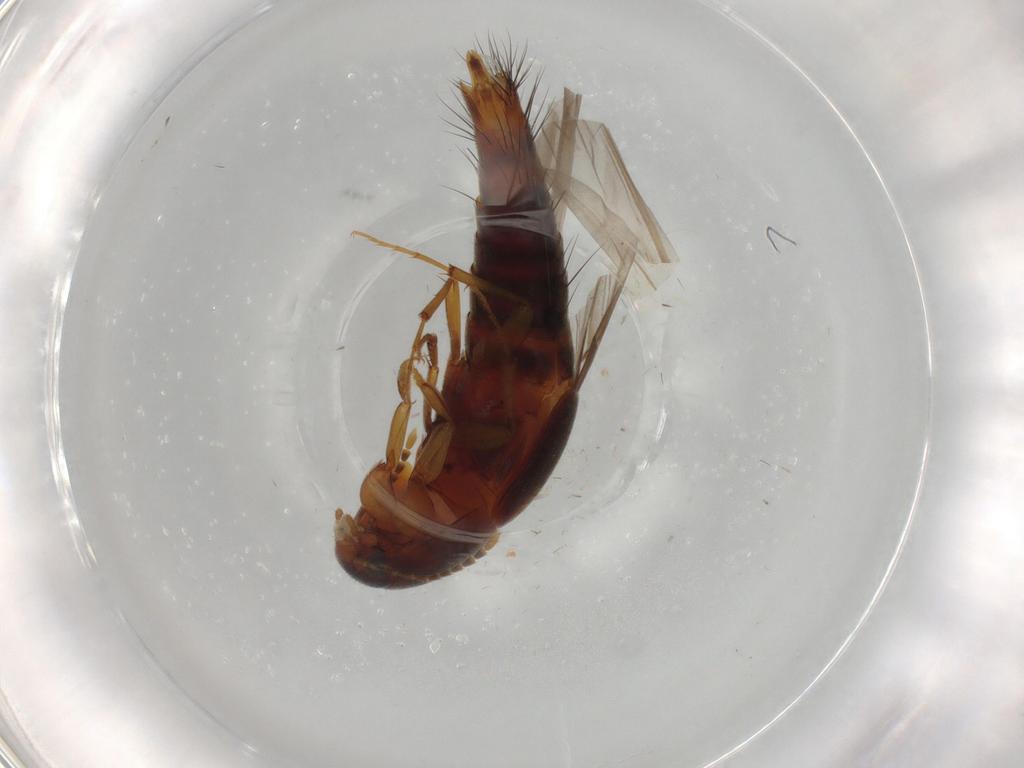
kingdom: Animalia
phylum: Arthropoda
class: Insecta
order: Coleoptera
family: Staphylinidae
